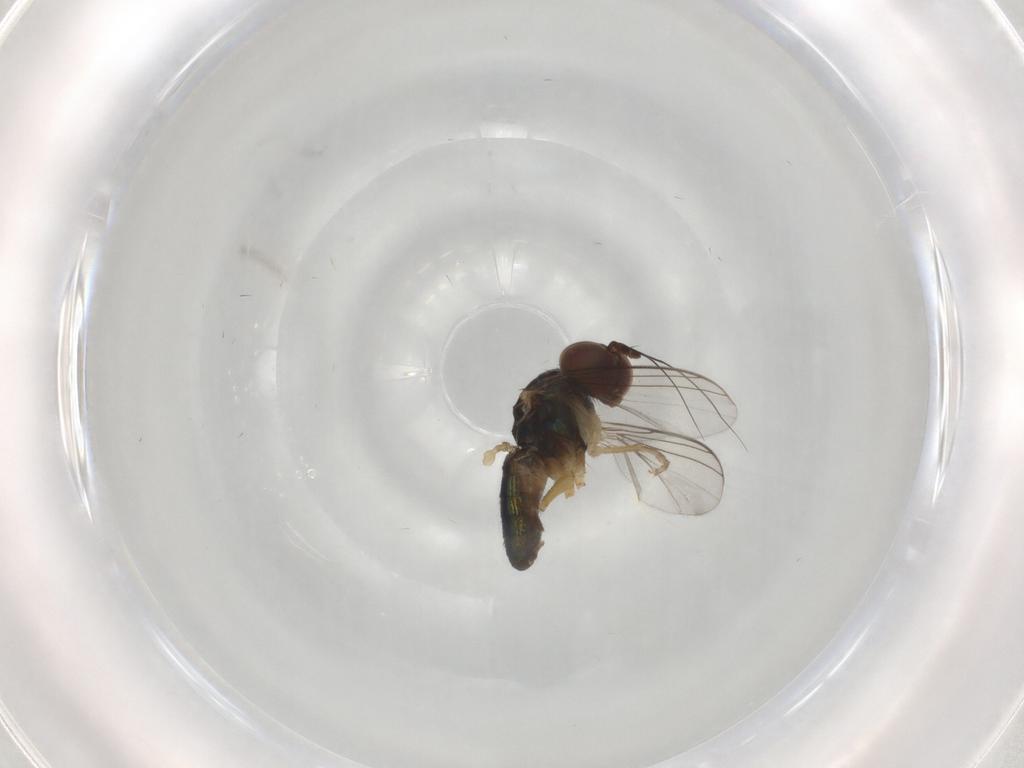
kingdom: Animalia
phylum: Arthropoda
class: Insecta
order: Diptera
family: Dolichopodidae
